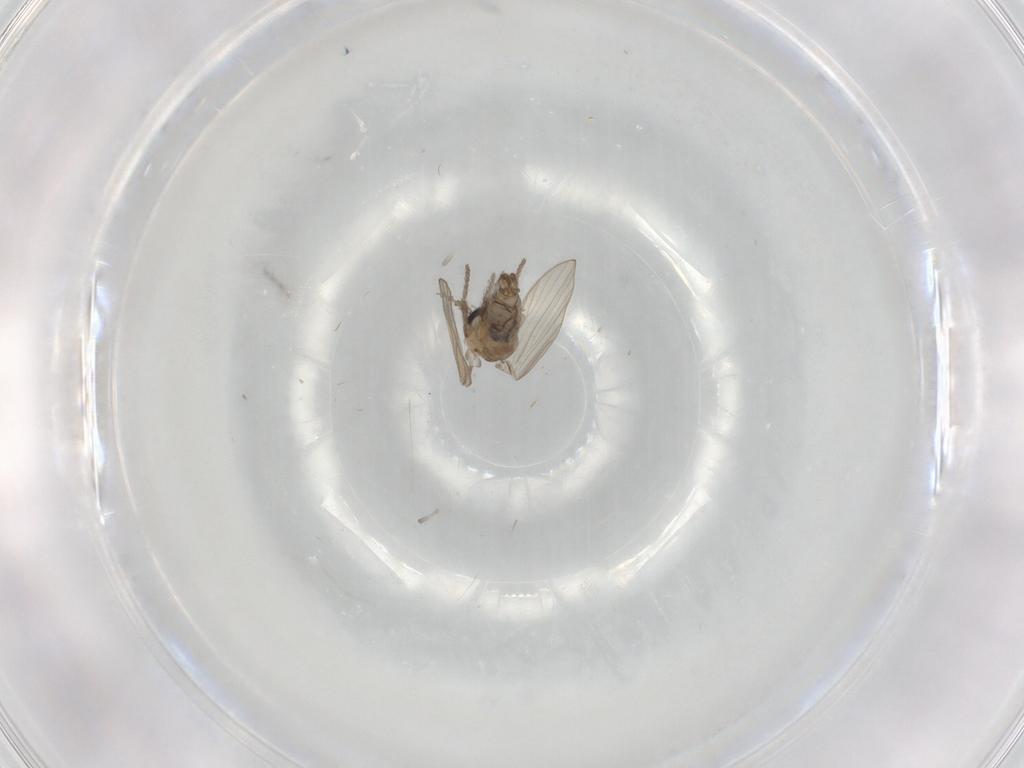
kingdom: Animalia
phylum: Arthropoda
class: Insecta
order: Diptera
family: Psychodidae
